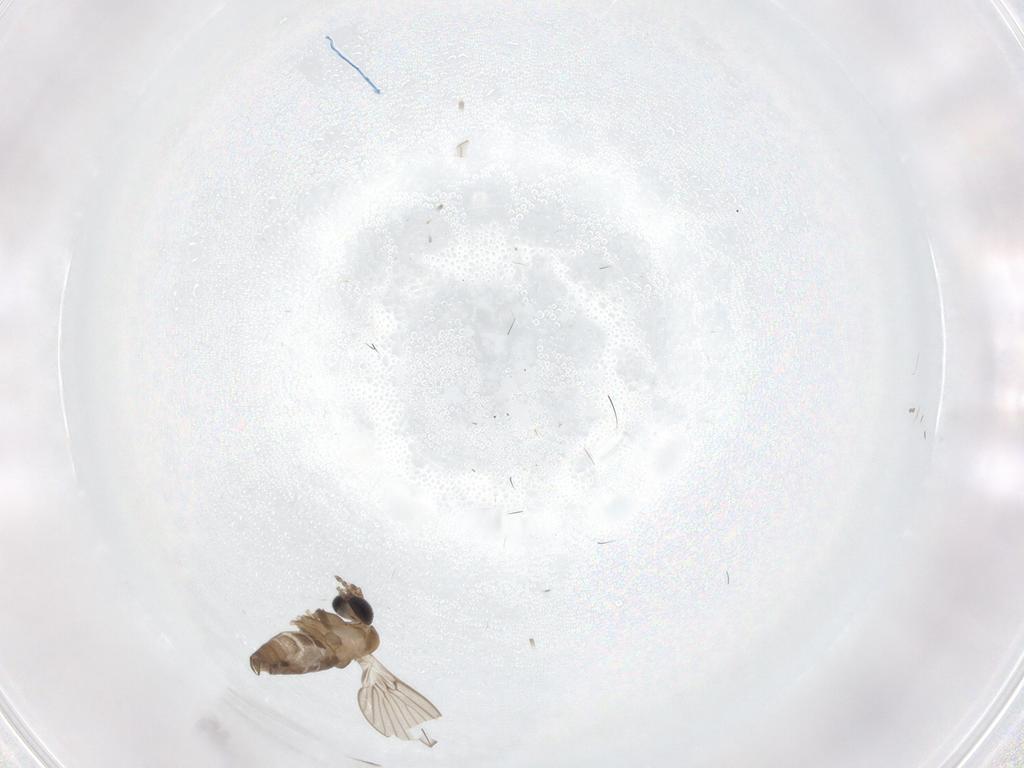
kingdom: Animalia
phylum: Arthropoda
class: Insecta
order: Diptera
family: Psychodidae
